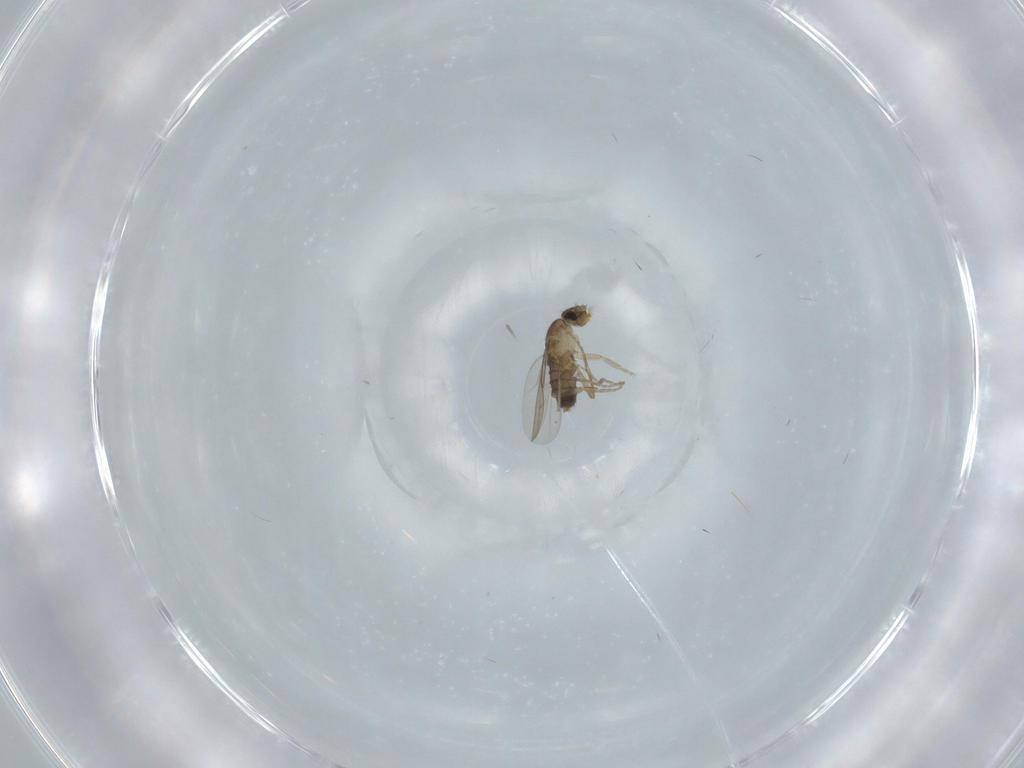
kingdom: Animalia
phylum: Arthropoda
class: Insecta
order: Diptera
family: Phoridae
